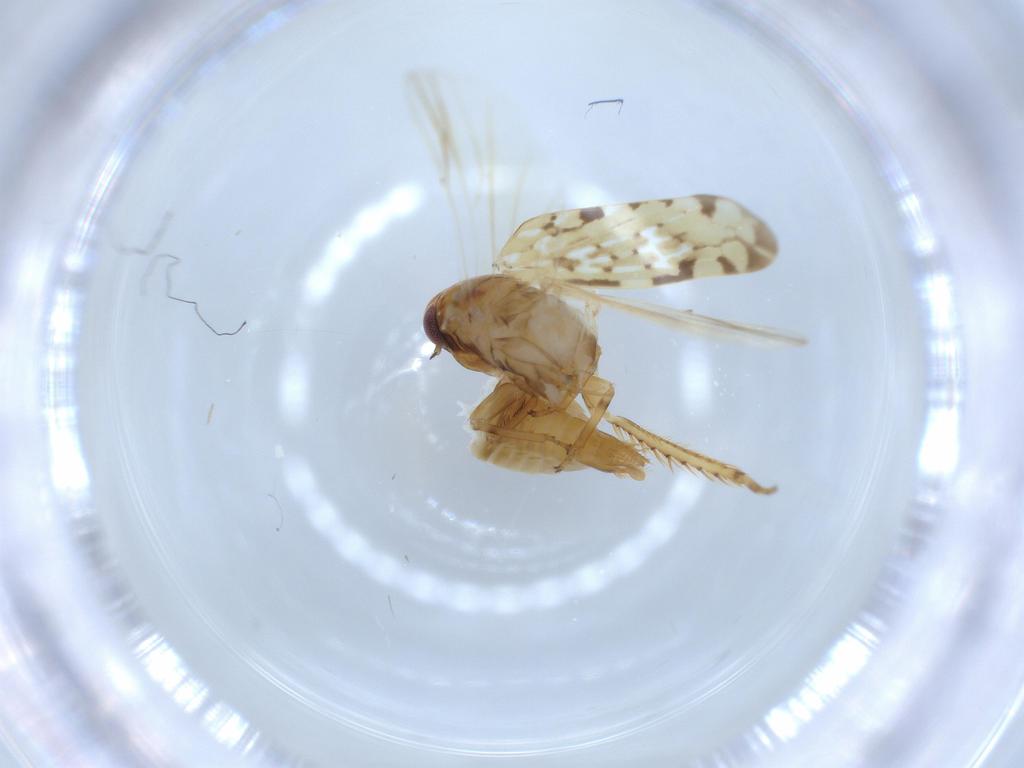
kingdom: Animalia
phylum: Arthropoda
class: Insecta
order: Hemiptera
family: Cicadellidae
